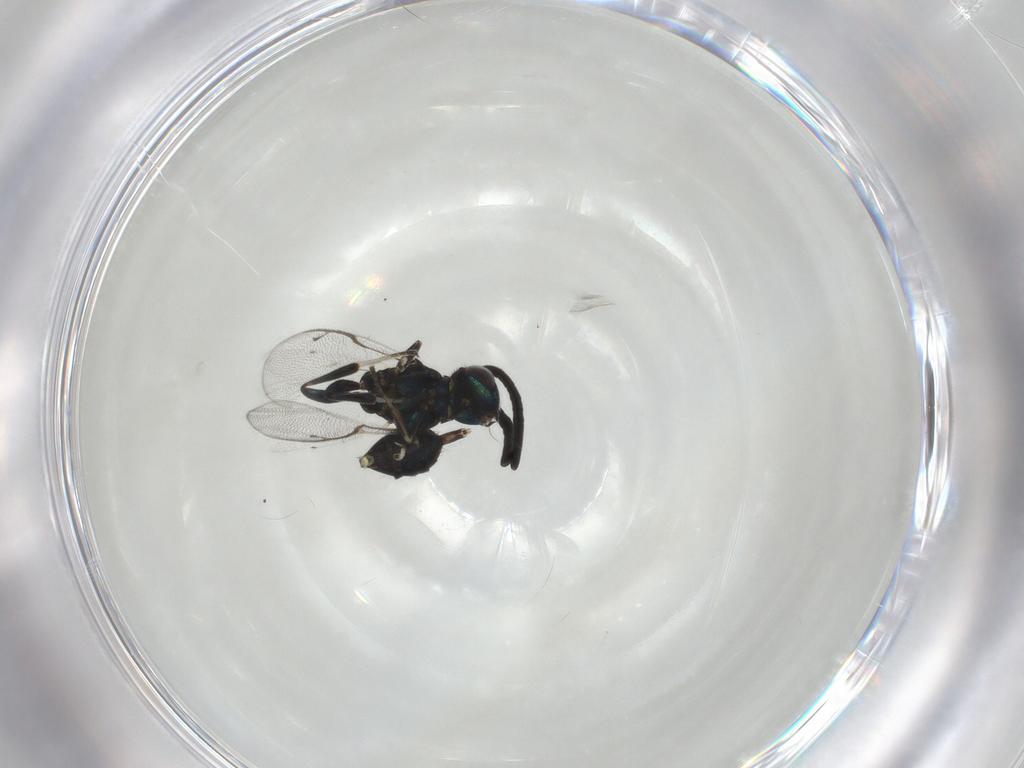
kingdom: Animalia
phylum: Arthropoda
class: Insecta
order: Hymenoptera
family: Eupelmidae
